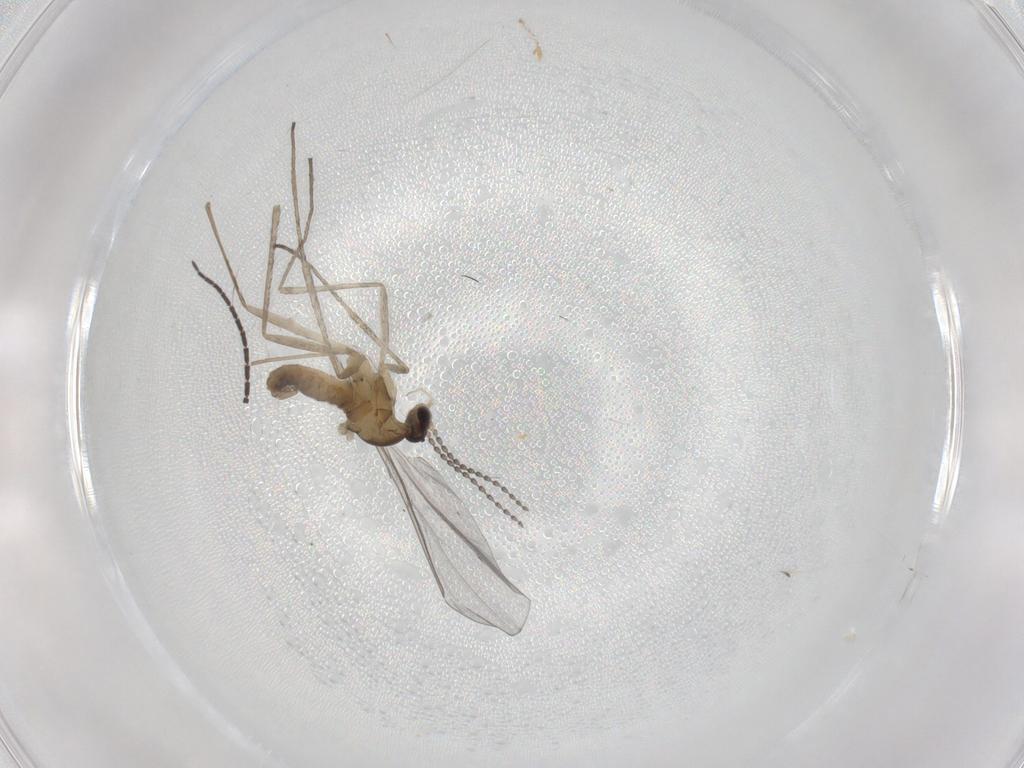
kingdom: Animalia
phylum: Arthropoda
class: Insecta
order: Diptera
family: Cecidomyiidae
